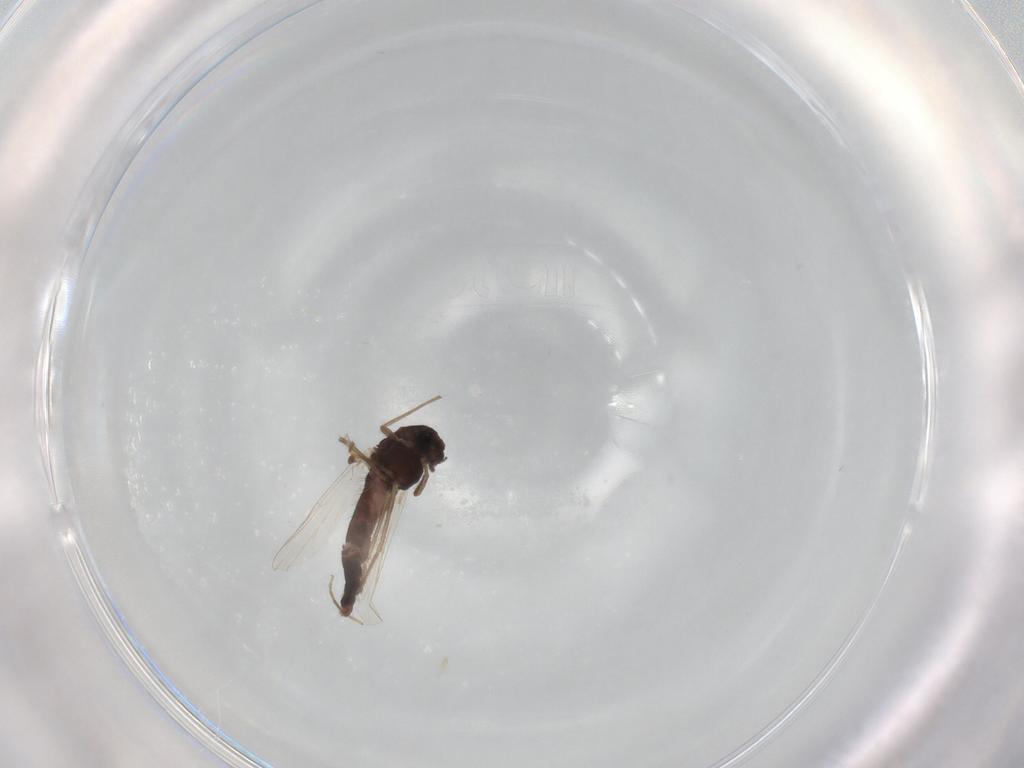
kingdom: Animalia
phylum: Arthropoda
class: Insecta
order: Diptera
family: Chironomidae
